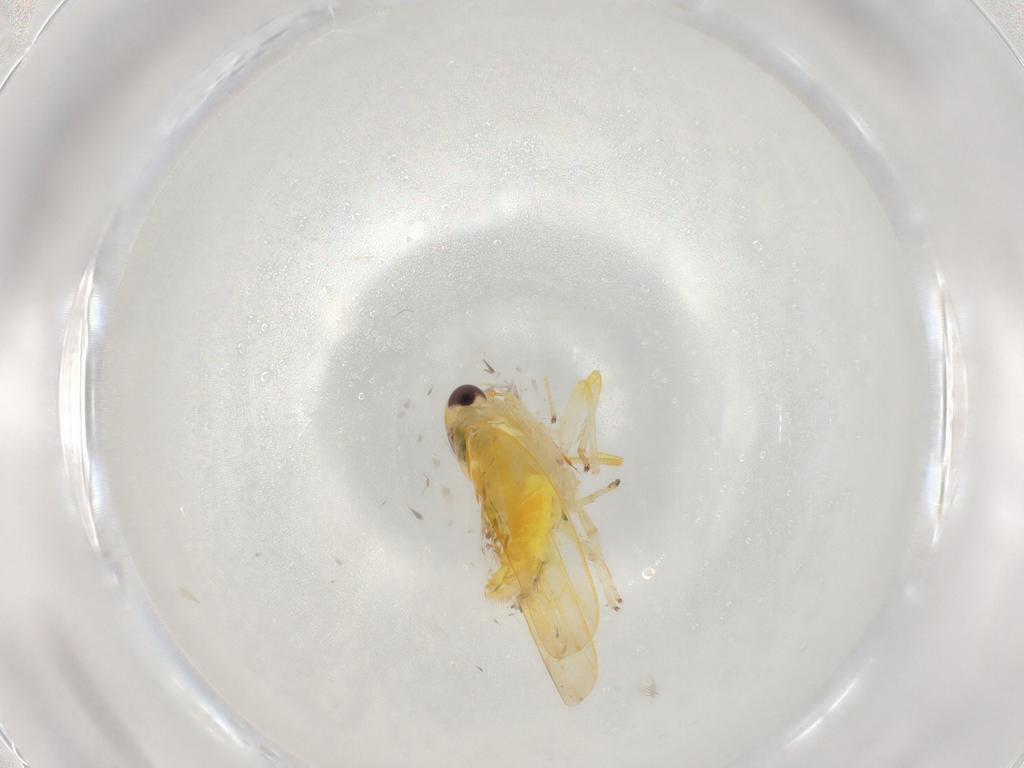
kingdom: Animalia
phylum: Arthropoda
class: Insecta
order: Hemiptera
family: Cicadellidae
